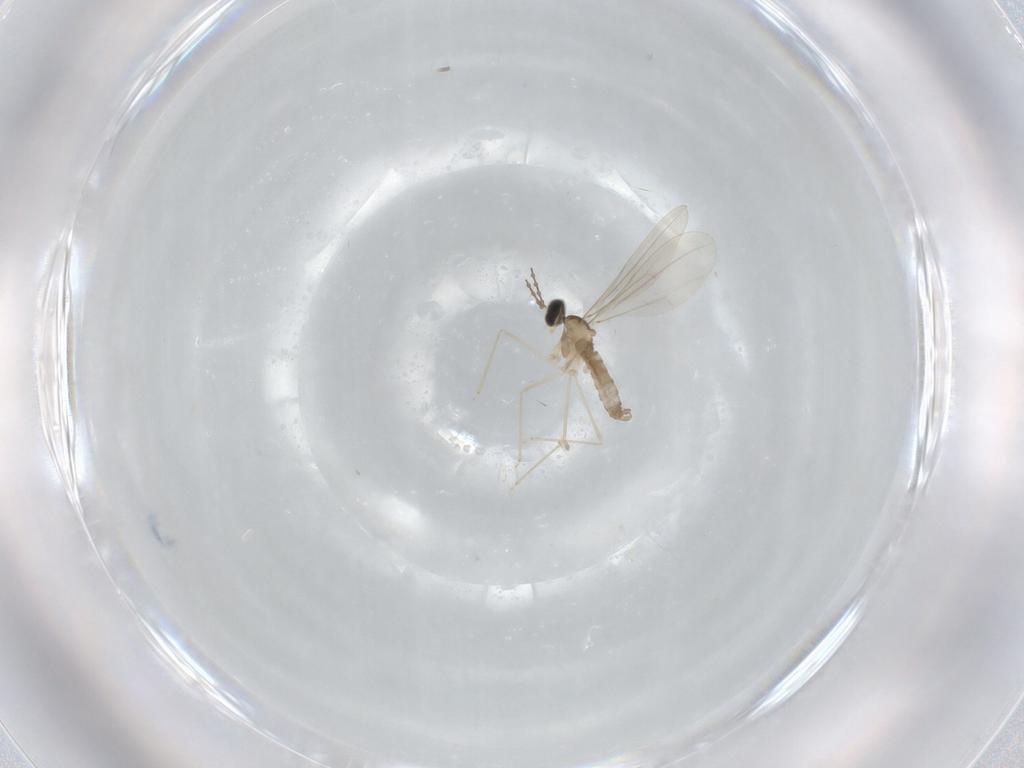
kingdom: Animalia
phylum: Arthropoda
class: Insecta
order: Diptera
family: Cecidomyiidae
